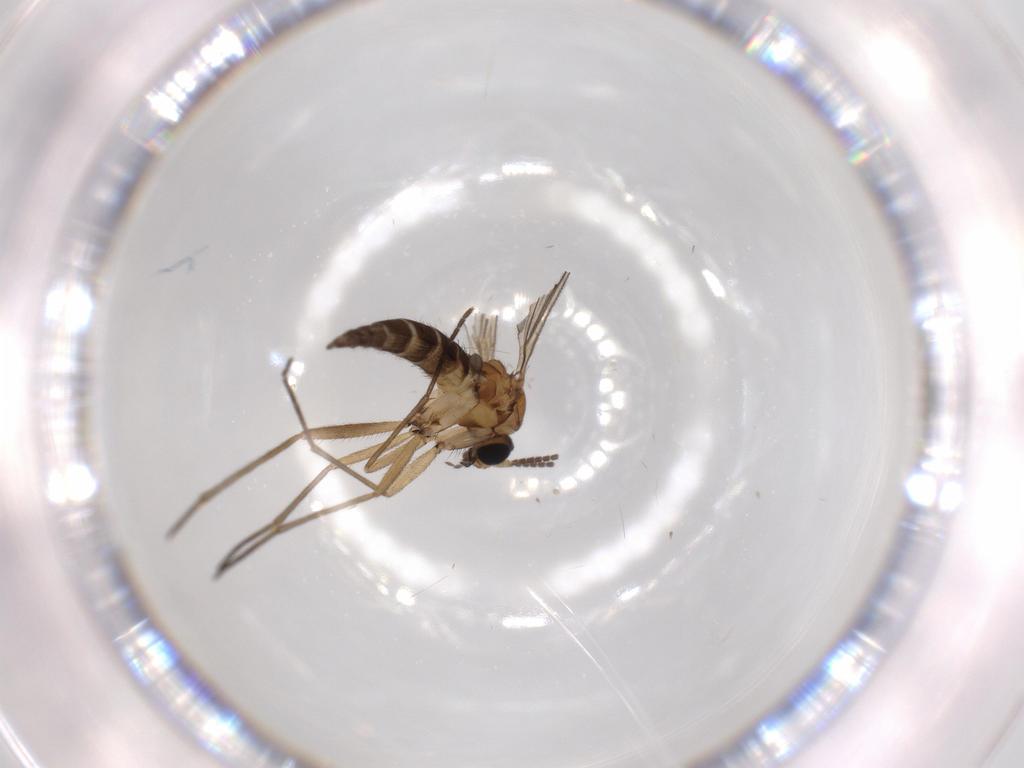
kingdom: Animalia
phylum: Arthropoda
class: Insecta
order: Diptera
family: Sciaridae
